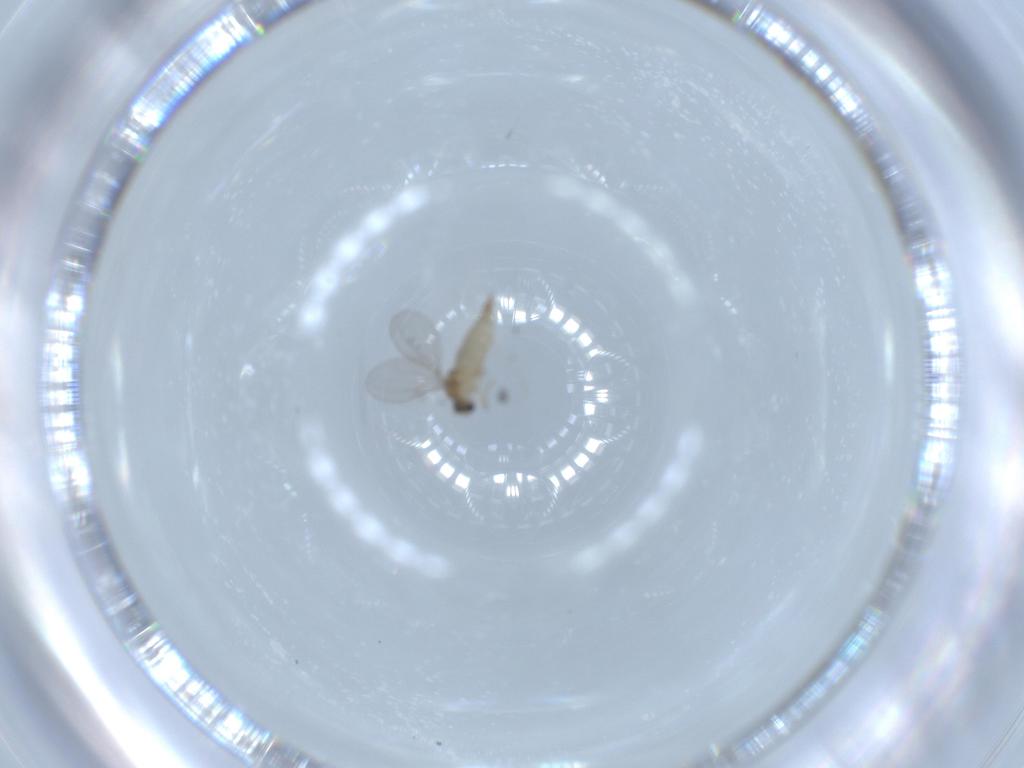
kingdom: Animalia
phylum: Arthropoda
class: Insecta
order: Diptera
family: Cecidomyiidae
